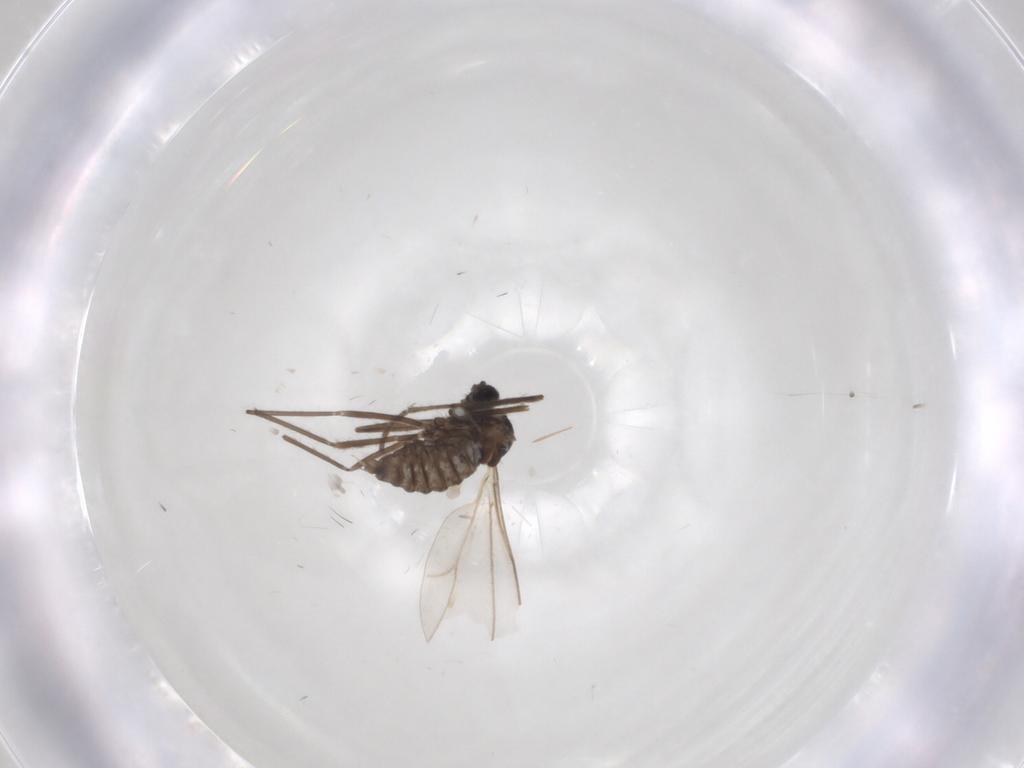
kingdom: Animalia
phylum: Arthropoda
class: Insecta
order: Diptera
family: Cecidomyiidae
